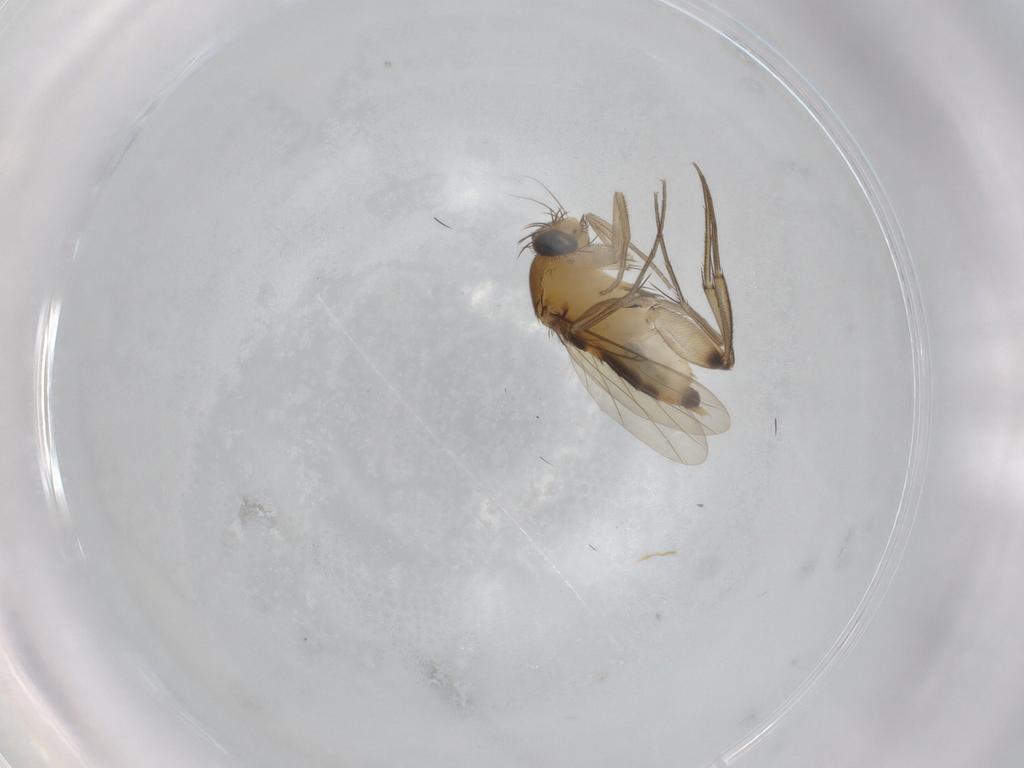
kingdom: Animalia
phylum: Arthropoda
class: Insecta
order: Diptera
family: Phoridae
